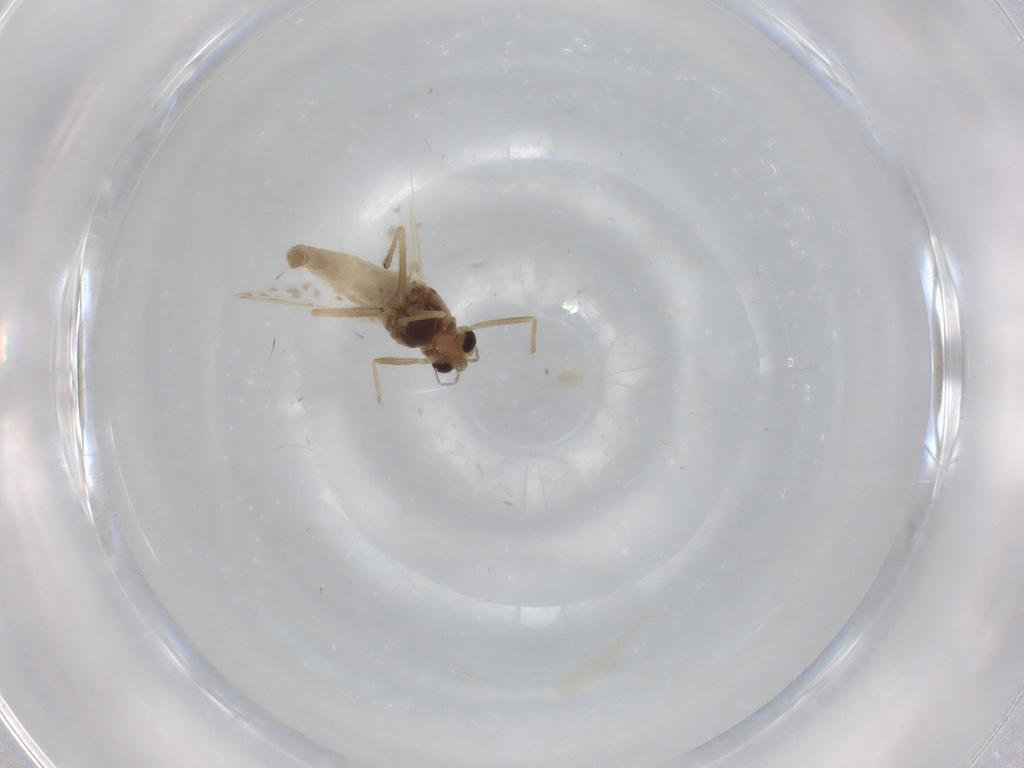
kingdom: Animalia
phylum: Arthropoda
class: Insecta
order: Diptera
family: Chironomidae
